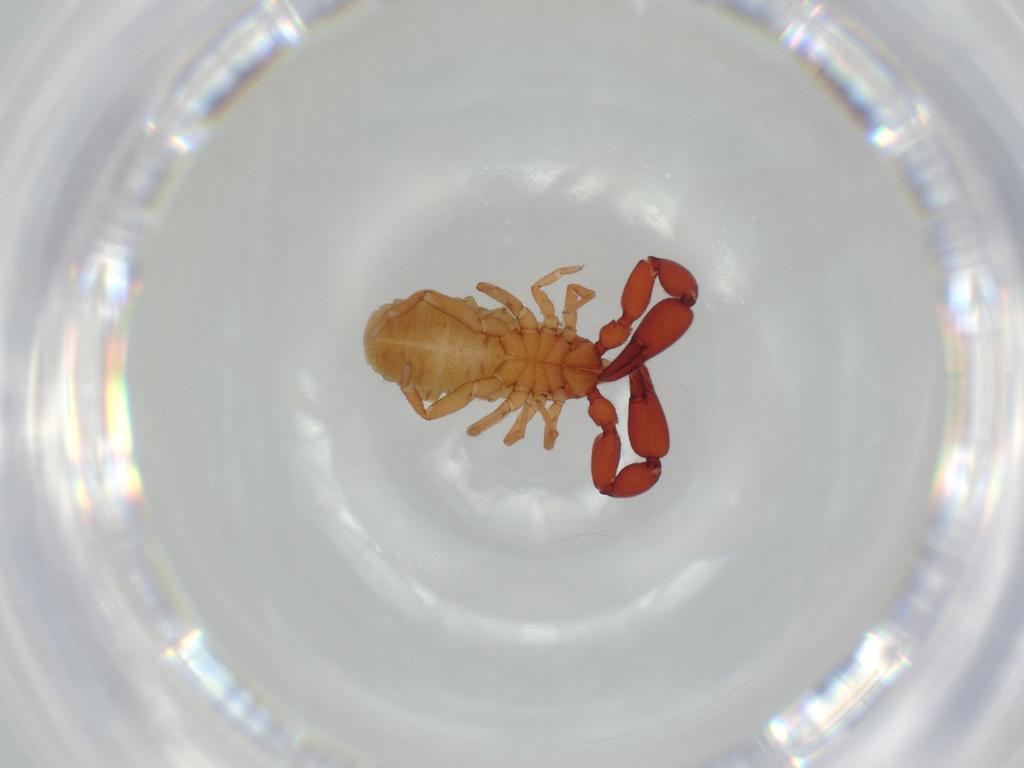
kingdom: Animalia
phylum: Arthropoda
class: Arachnida
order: Pseudoscorpiones
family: Chernetidae
